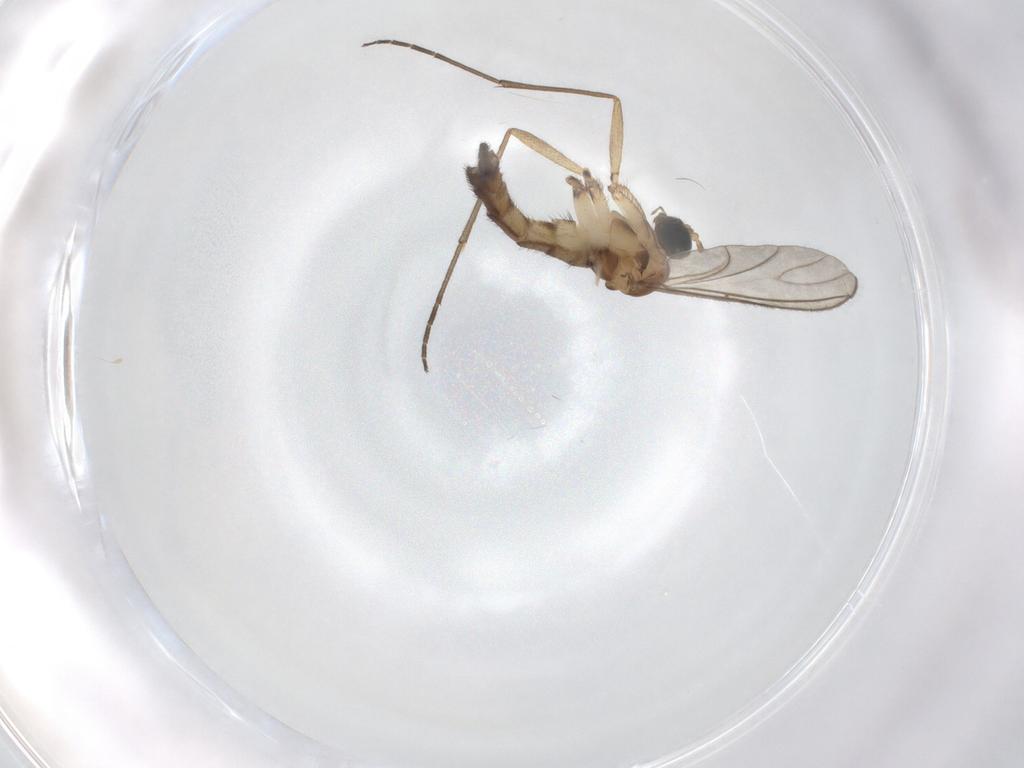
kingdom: Animalia
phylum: Arthropoda
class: Insecta
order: Diptera
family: Sciaridae
